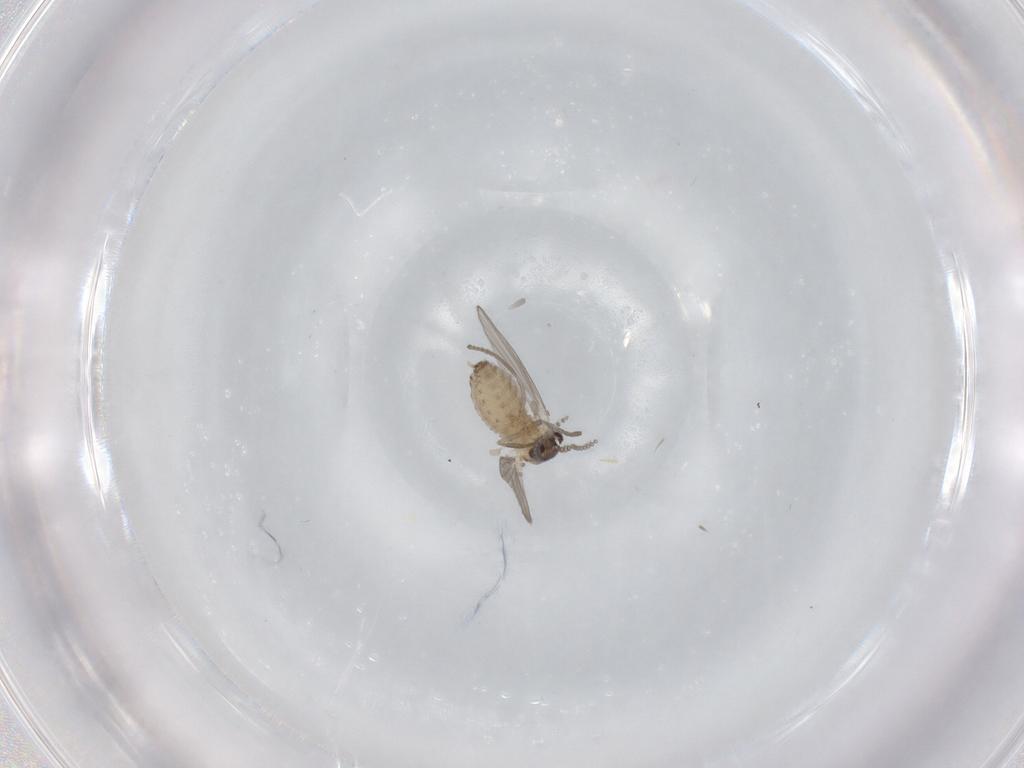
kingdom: Animalia
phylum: Arthropoda
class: Insecta
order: Diptera
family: Psychodidae
